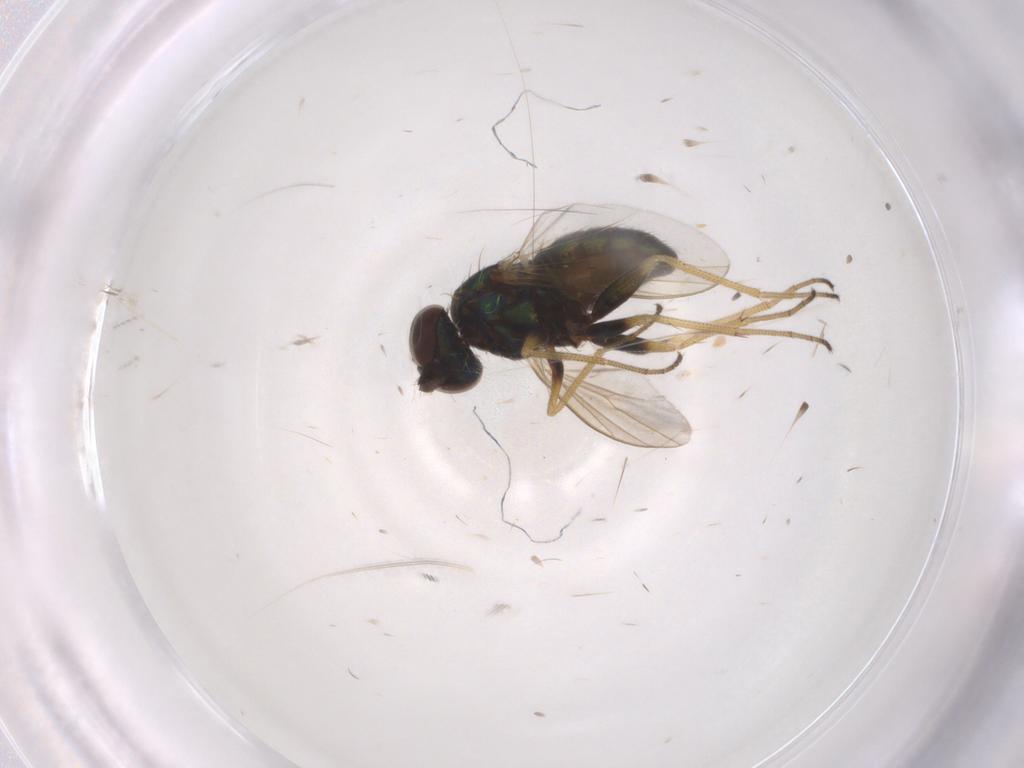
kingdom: Animalia
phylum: Arthropoda
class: Insecta
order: Diptera
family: Dolichopodidae
